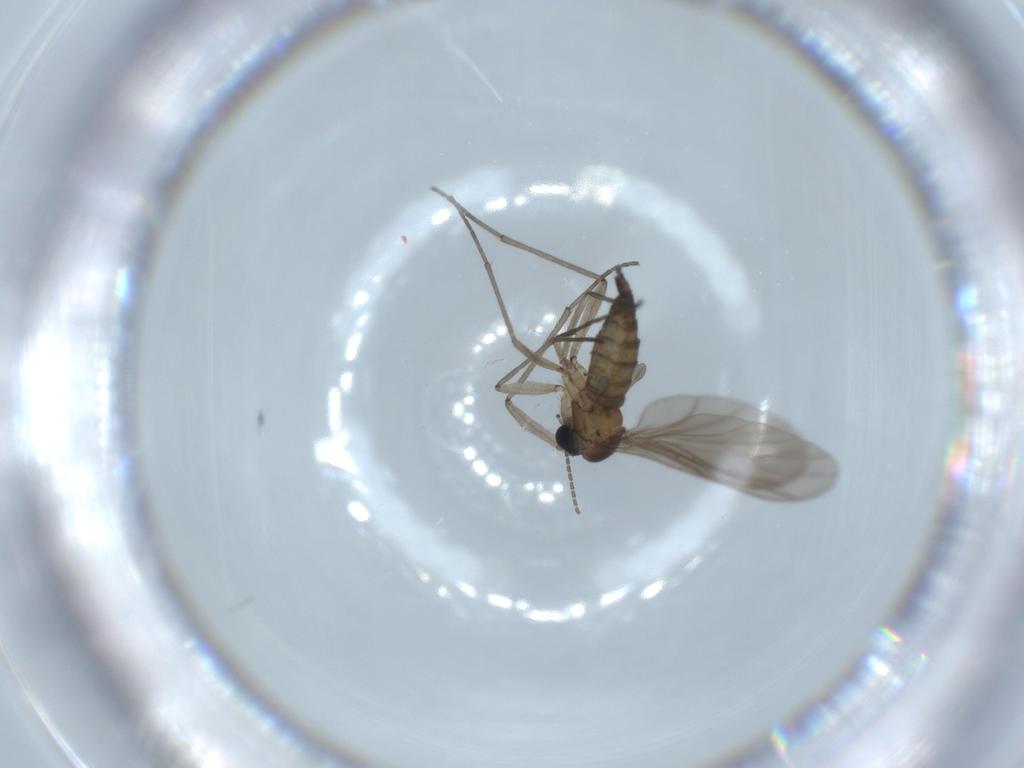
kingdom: Animalia
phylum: Arthropoda
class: Insecta
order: Diptera
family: Sciaridae
